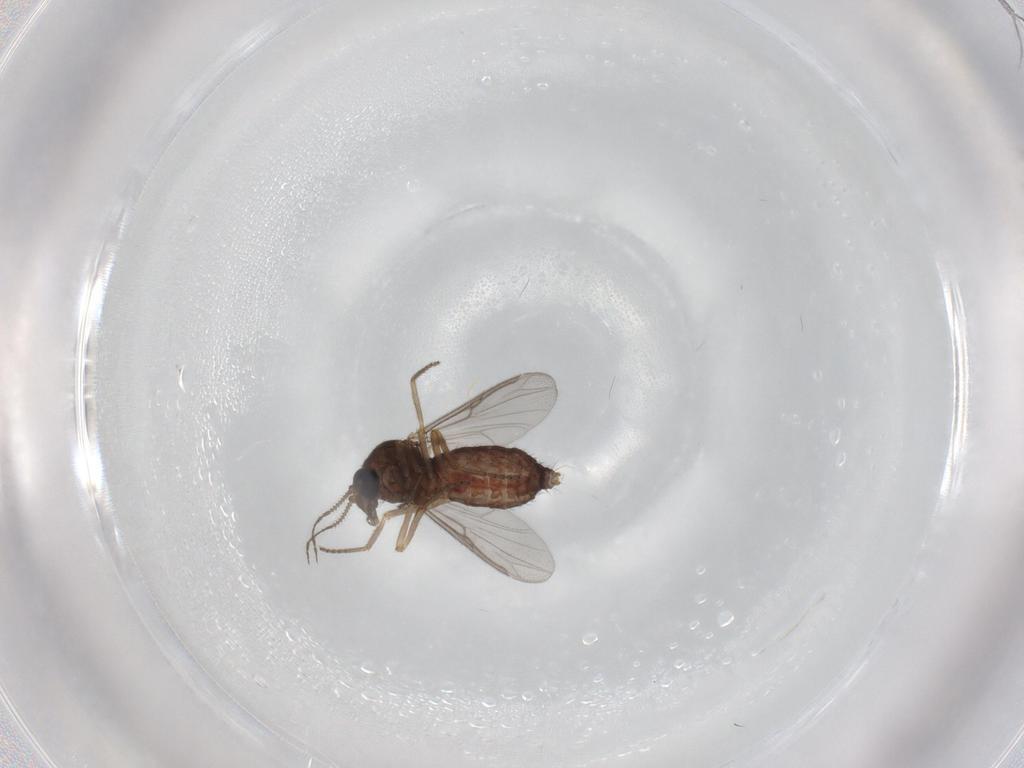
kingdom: Animalia
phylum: Arthropoda
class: Insecta
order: Diptera
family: Ceratopogonidae
